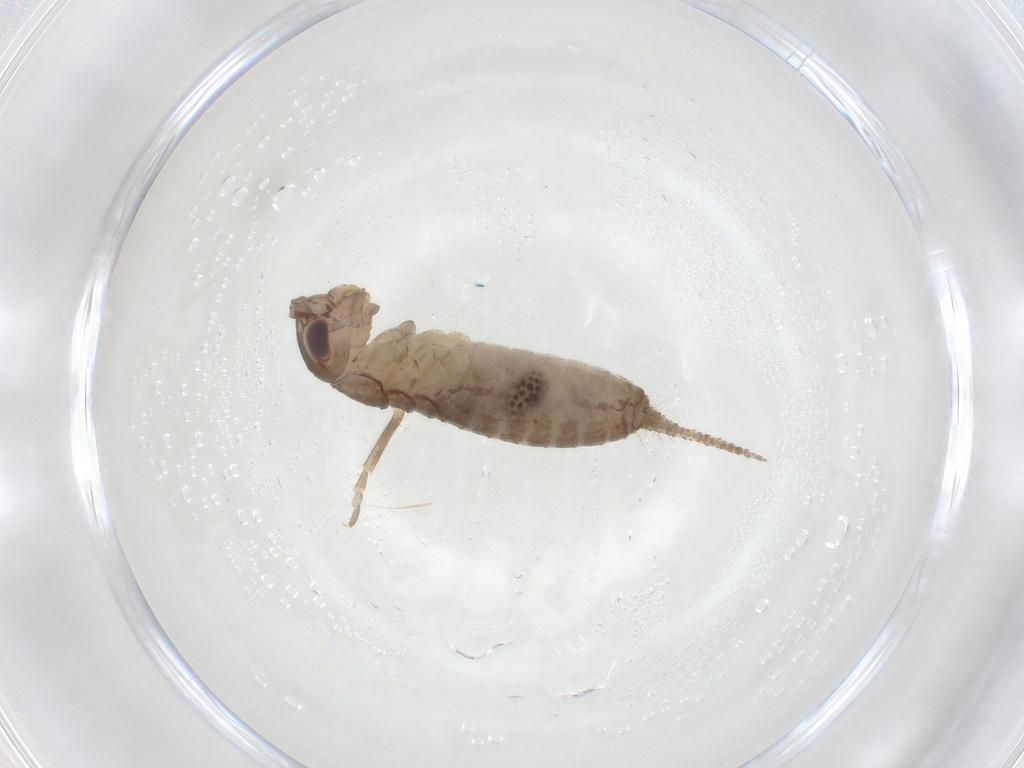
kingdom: Animalia
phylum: Arthropoda
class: Insecta
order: Orthoptera
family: Gryllidae
